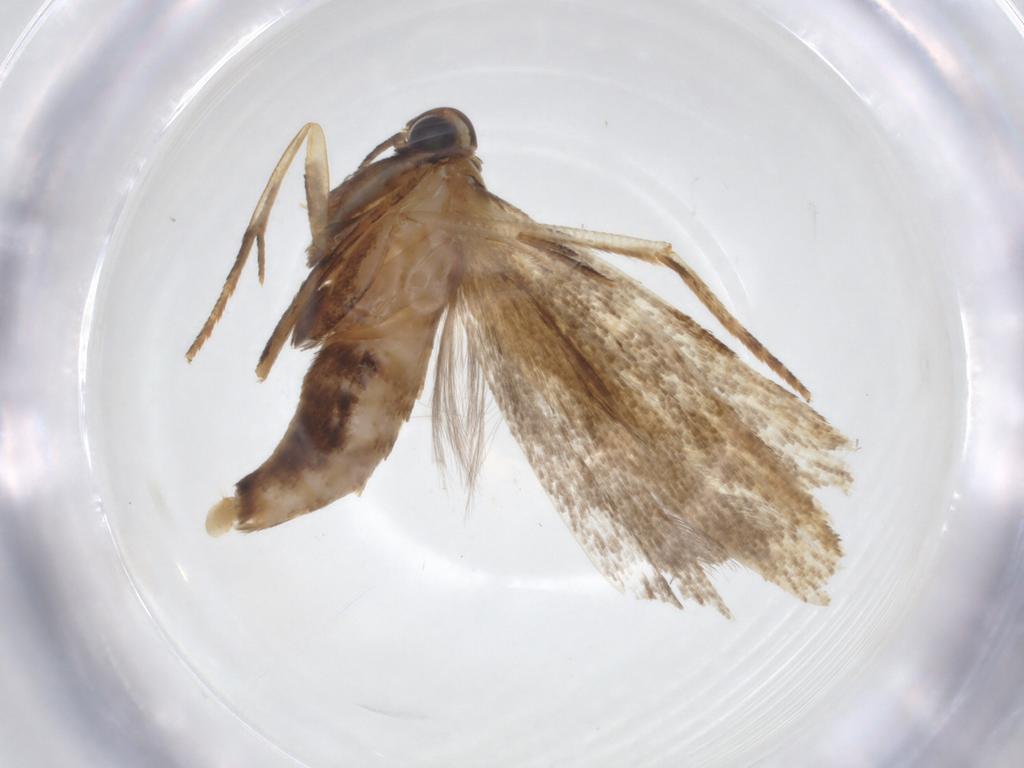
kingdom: Animalia
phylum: Arthropoda
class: Insecta
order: Lepidoptera
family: Gelechiidae
